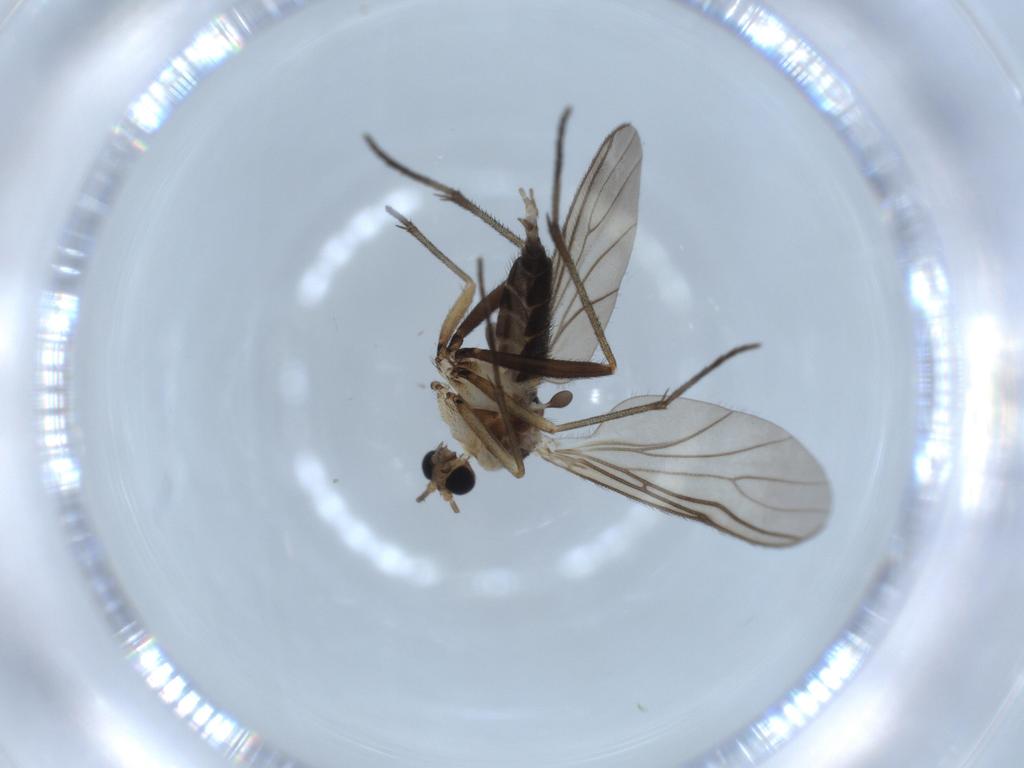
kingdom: Animalia
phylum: Arthropoda
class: Insecta
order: Diptera
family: Sciaridae
